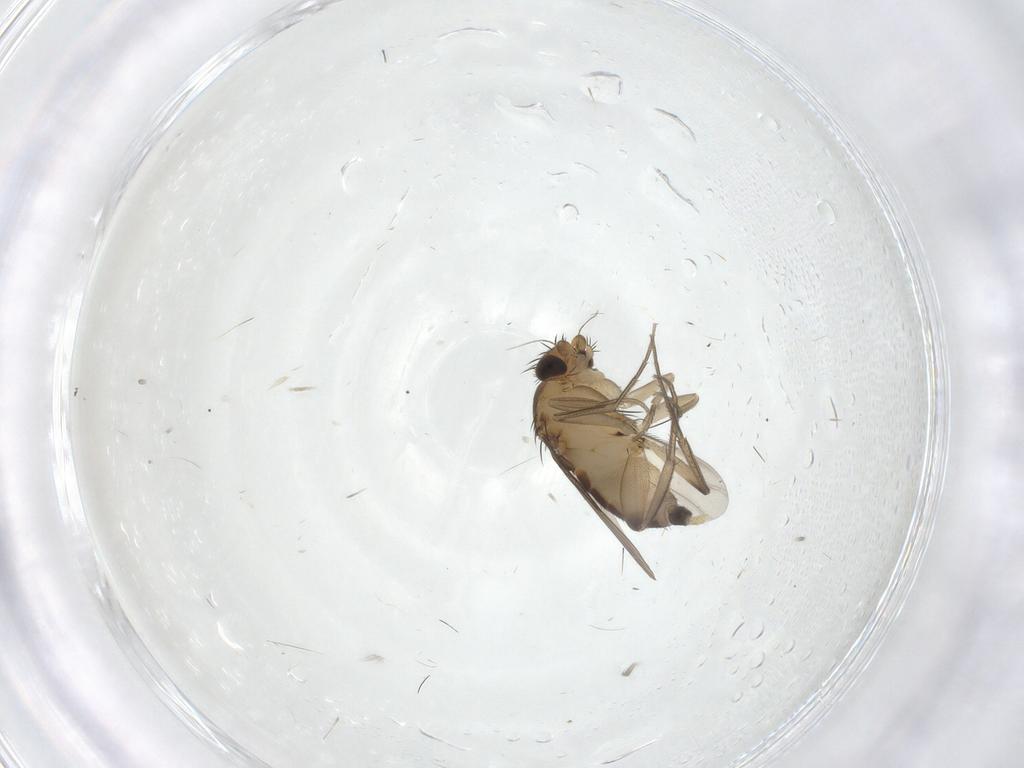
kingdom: Animalia
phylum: Arthropoda
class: Insecta
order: Diptera
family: Phoridae
